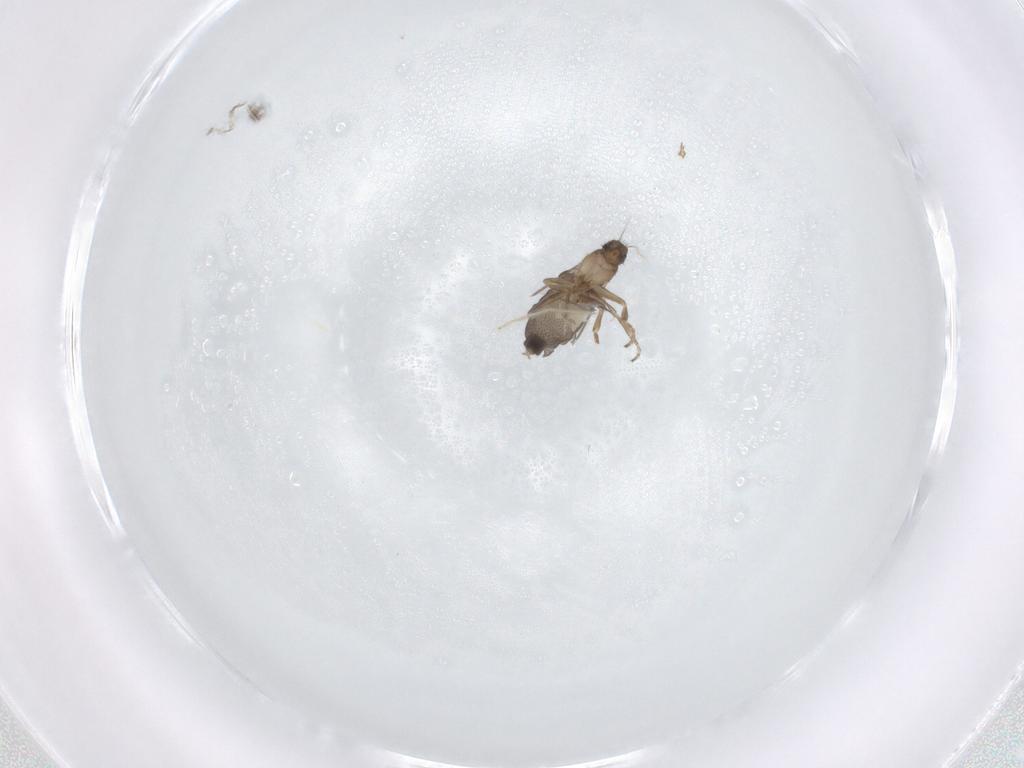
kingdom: Animalia
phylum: Arthropoda
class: Insecta
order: Diptera
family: Phoridae
